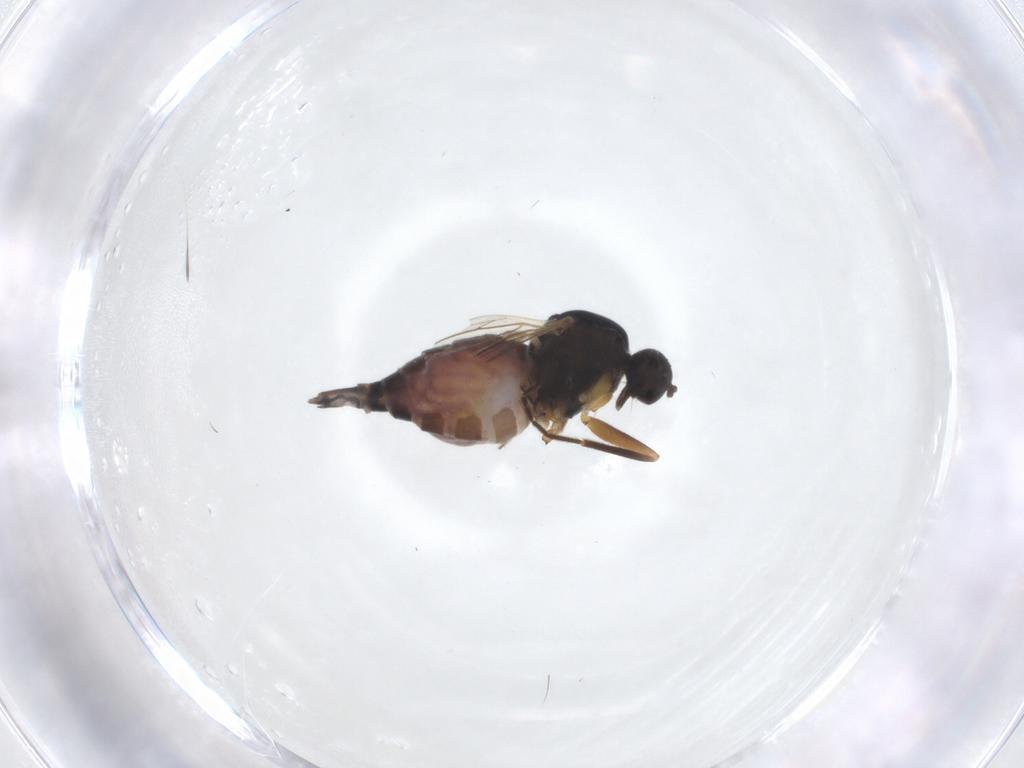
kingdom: Animalia
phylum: Arthropoda
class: Insecta
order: Diptera
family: Hybotidae
